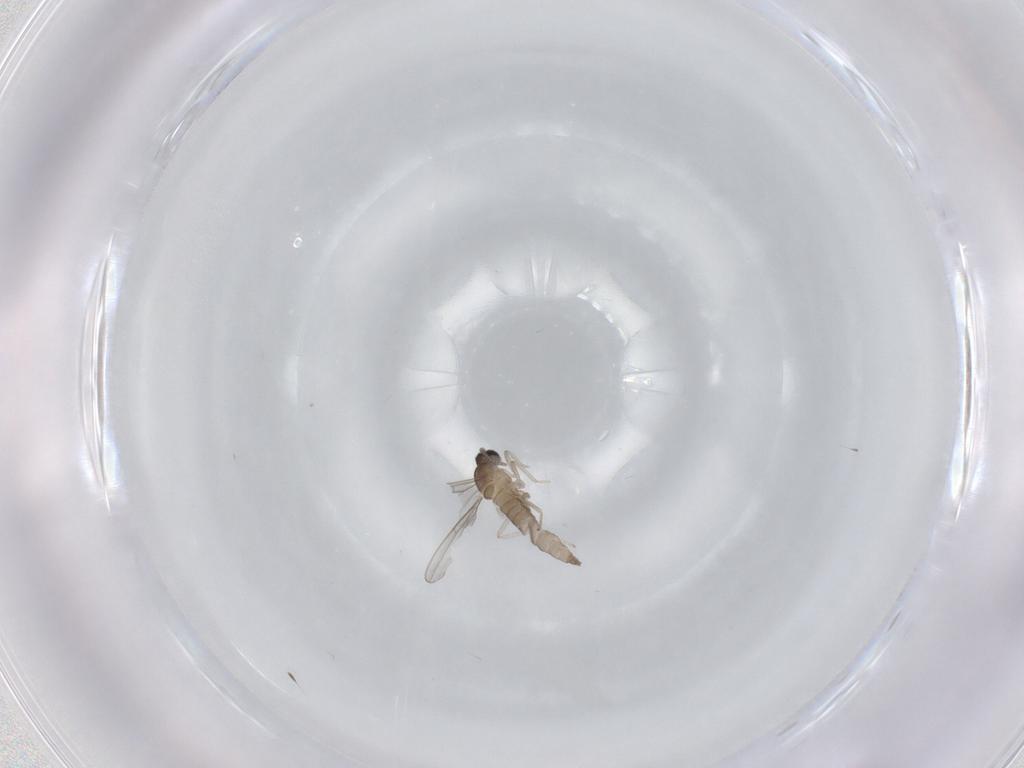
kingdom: Animalia
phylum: Arthropoda
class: Insecta
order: Diptera
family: Cecidomyiidae
